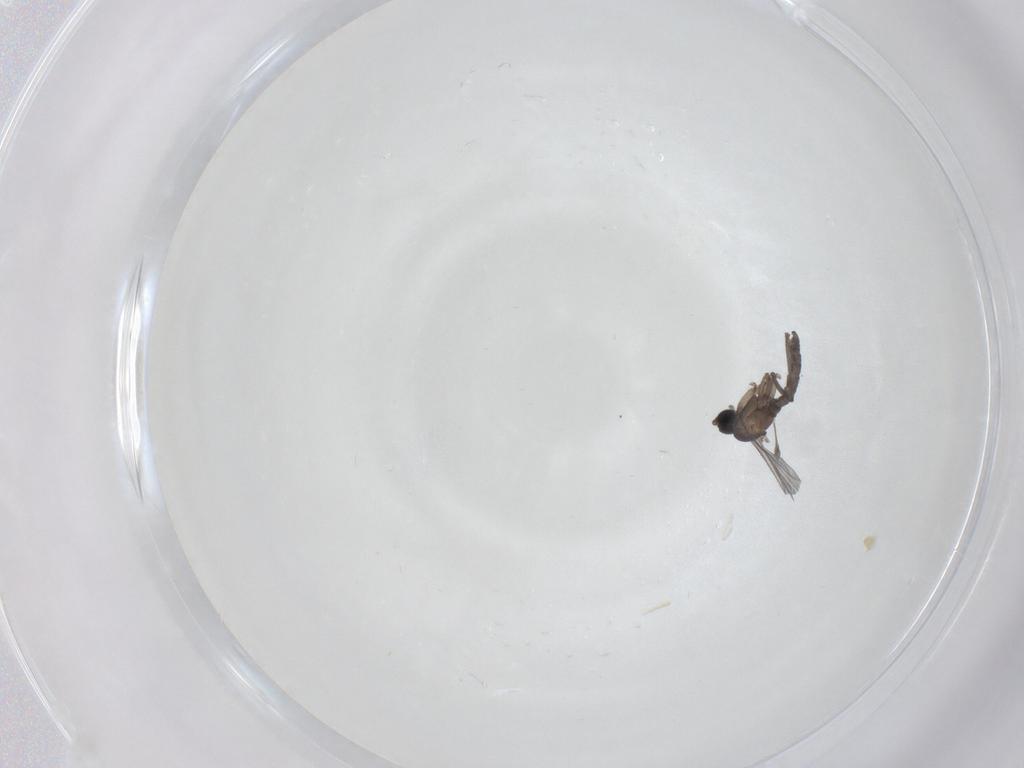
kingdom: Animalia
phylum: Arthropoda
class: Insecta
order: Diptera
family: Sciaridae
